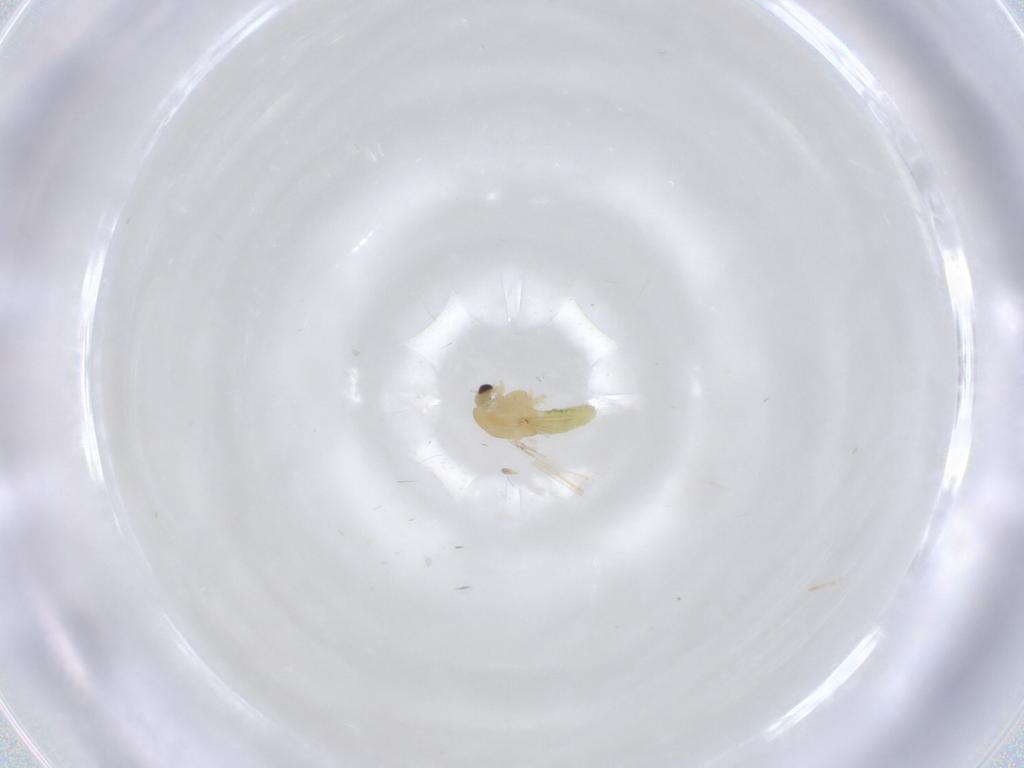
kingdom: Animalia
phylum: Arthropoda
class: Insecta
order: Diptera
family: Chironomidae
